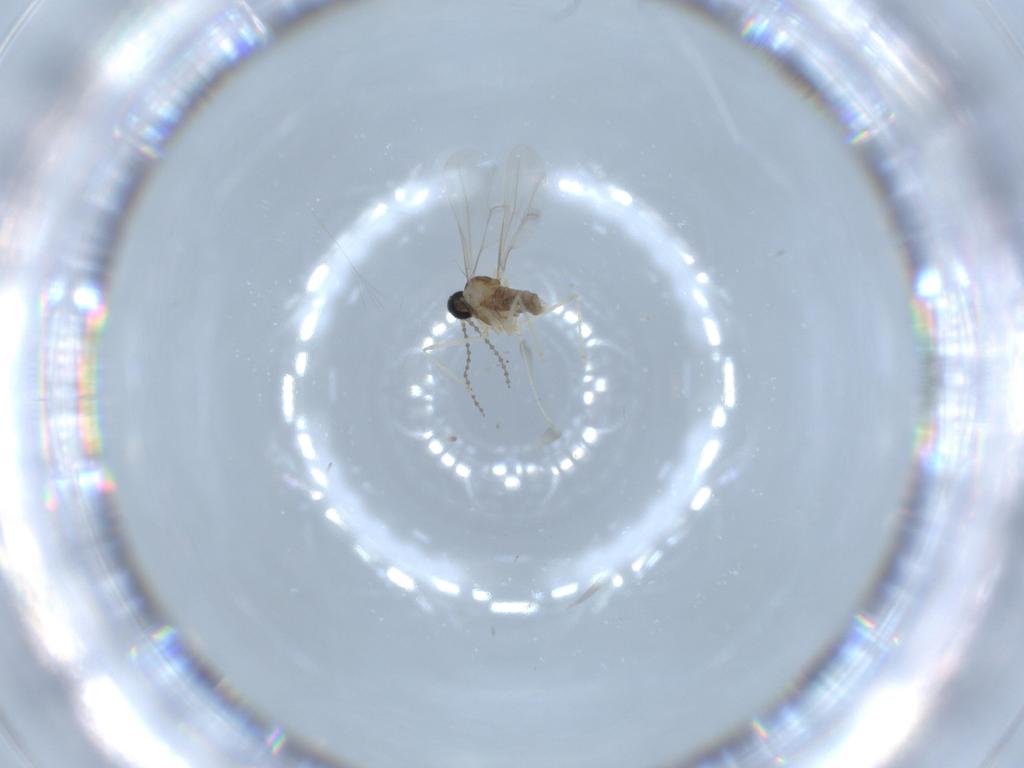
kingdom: Animalia
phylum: Arthropoda
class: Insecta
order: Diptera
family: Cecidomyiidae
